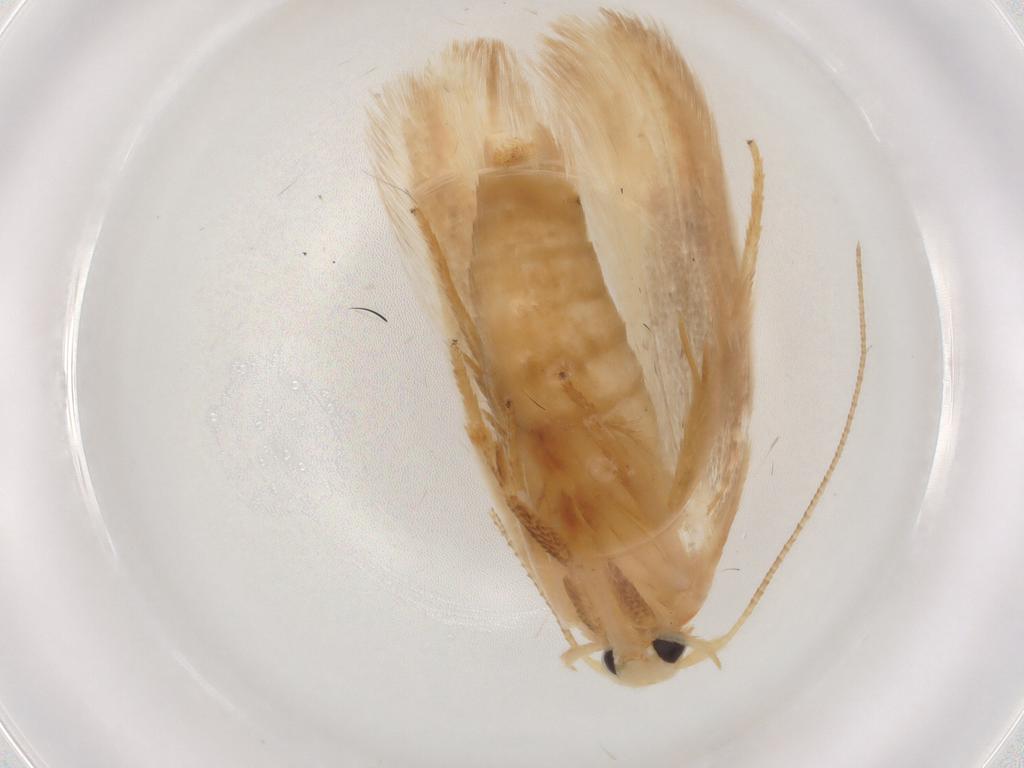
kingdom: Animalia
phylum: Arthropoda
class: Insecta
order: Lepidoptera
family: Geometridae
